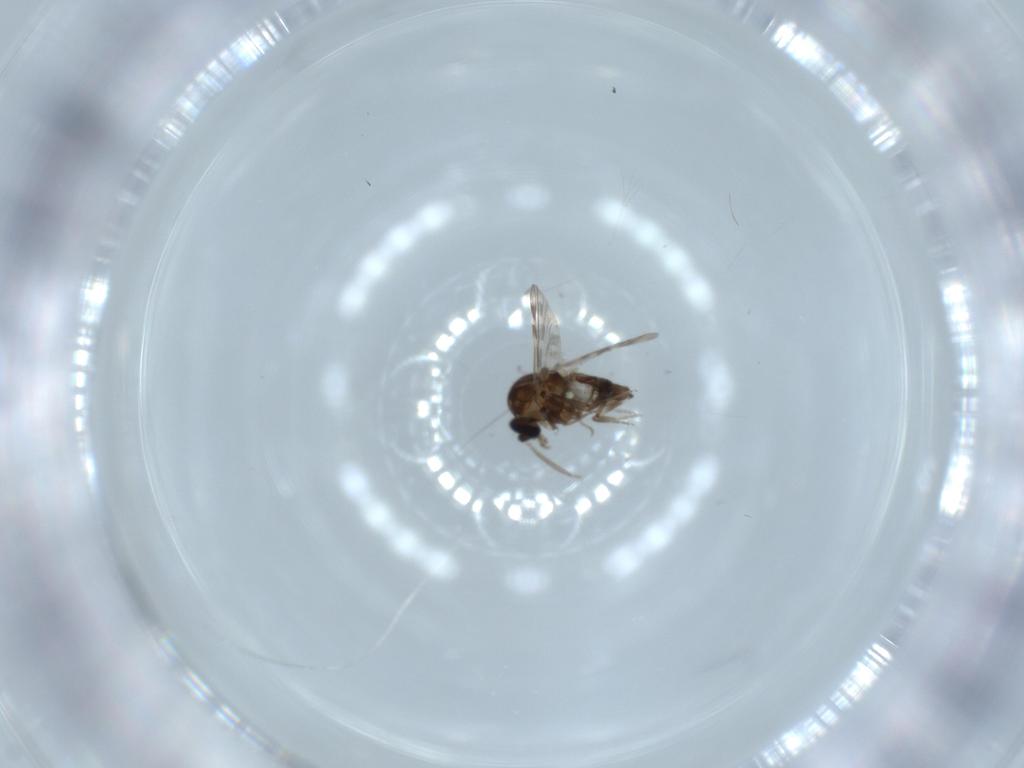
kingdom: Animalia
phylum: Arthropoda
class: Insecta
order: Diptera
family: Ceratopogonidae
